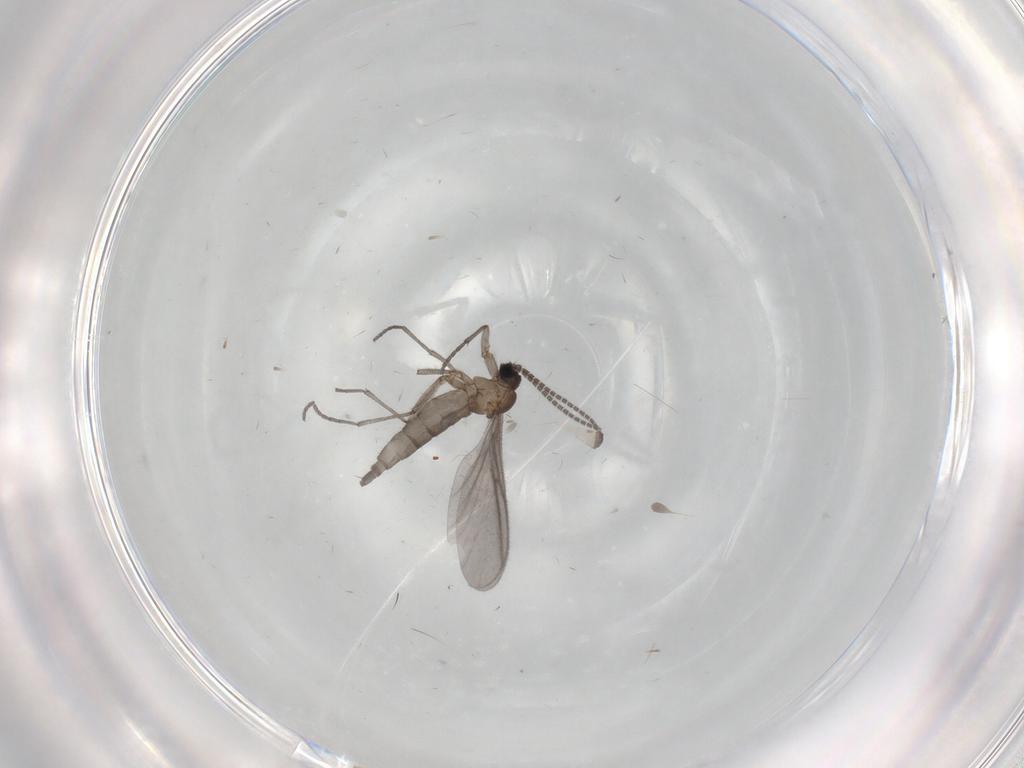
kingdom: Animalia
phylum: Arthropoda
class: Insecta
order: Diptera
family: Sciaridae
